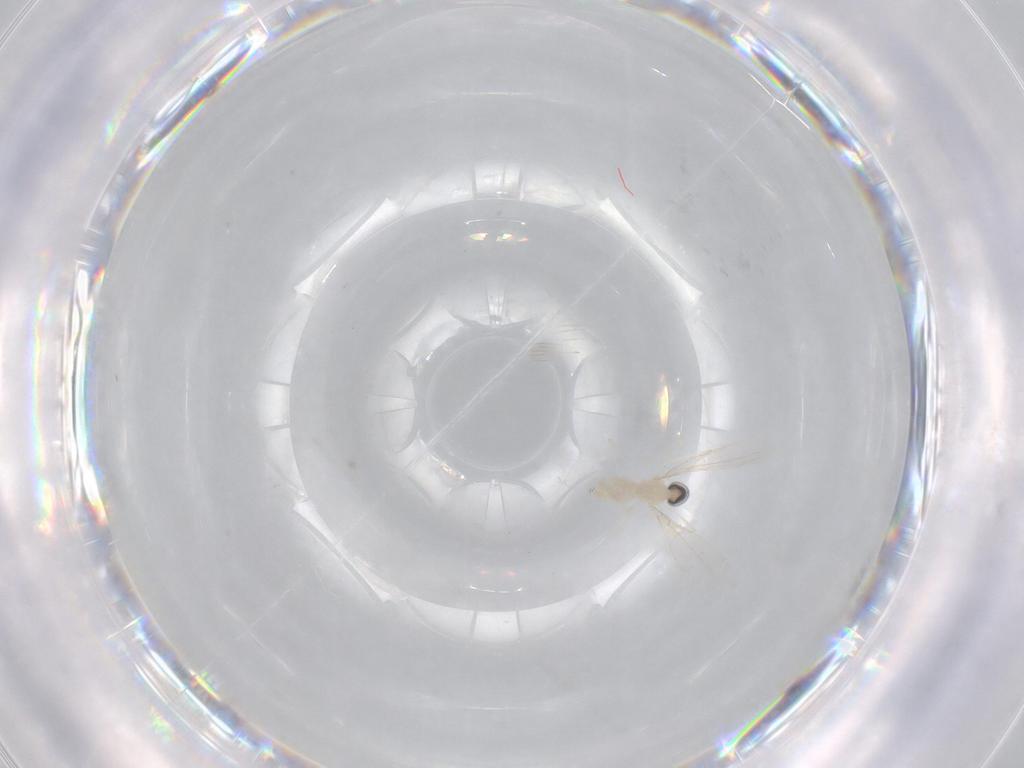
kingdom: Animalia
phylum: Arthropoda
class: Insecta
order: Diptera
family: Cecidomyiidae
